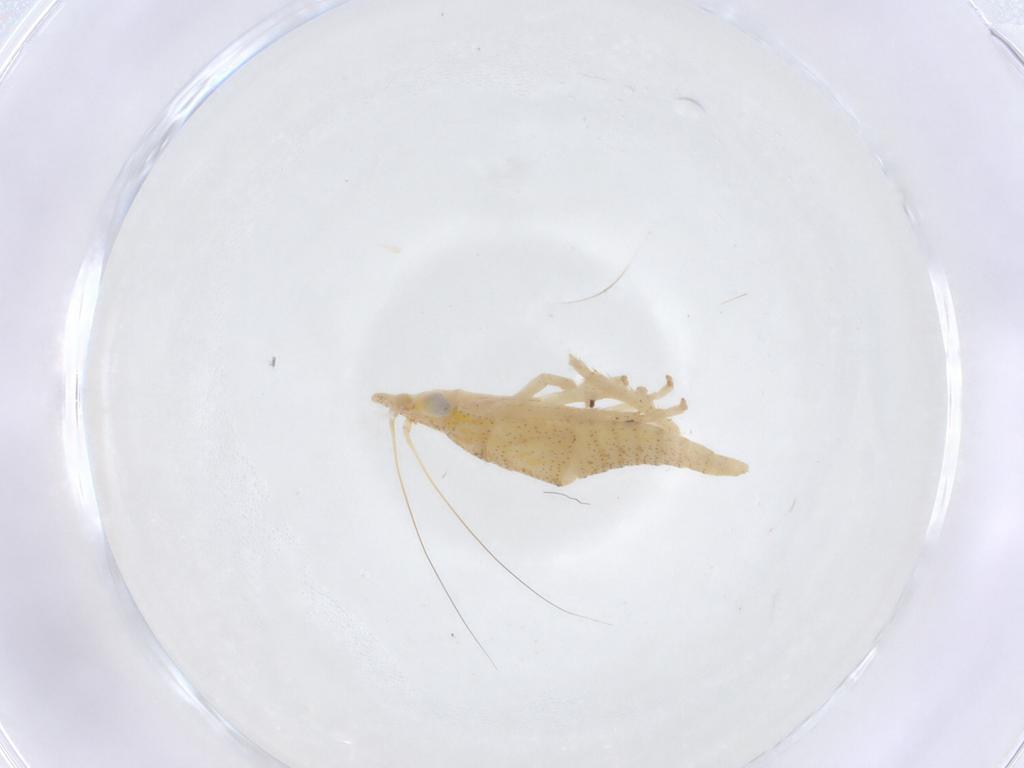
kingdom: Animalia
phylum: Arthropoda
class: Insecta
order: Hemiptera
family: Cicadellidae
